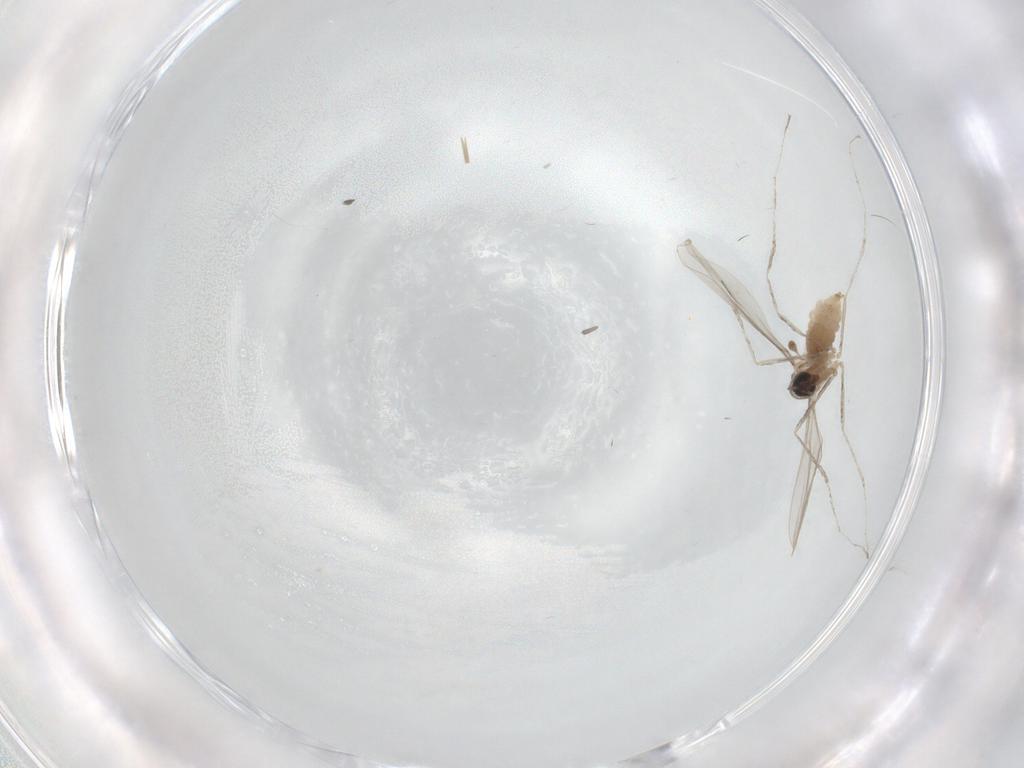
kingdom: Animalia
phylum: Arthropoda
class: Insecta
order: Diptera
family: Cecidomyiidae
